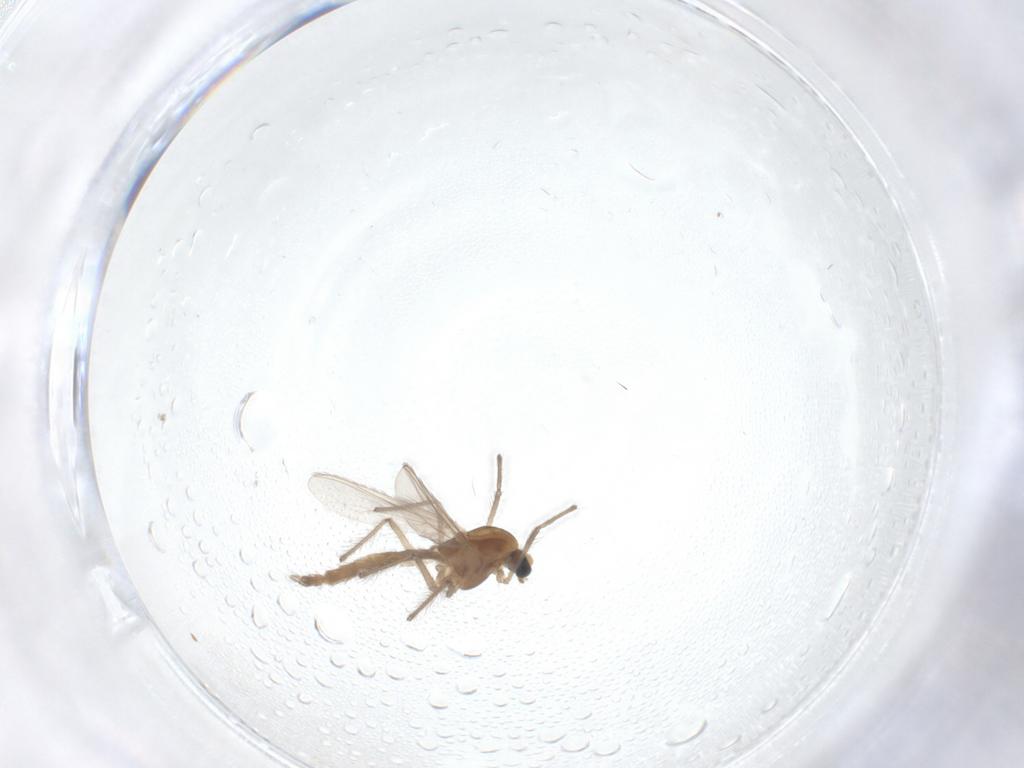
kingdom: Animalia
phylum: Arthropoda
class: Insecta
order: Diptera
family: Chironomidae
